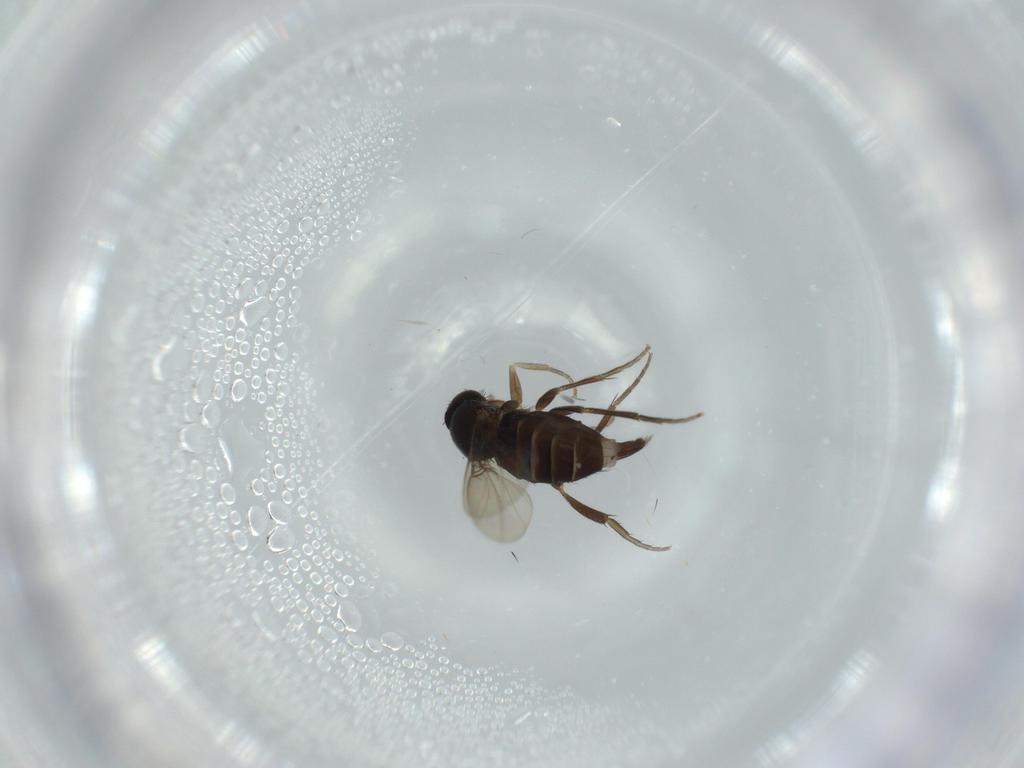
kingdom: Animalia
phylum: Arthropoda
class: Insecta
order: Diptera
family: Phoridae
